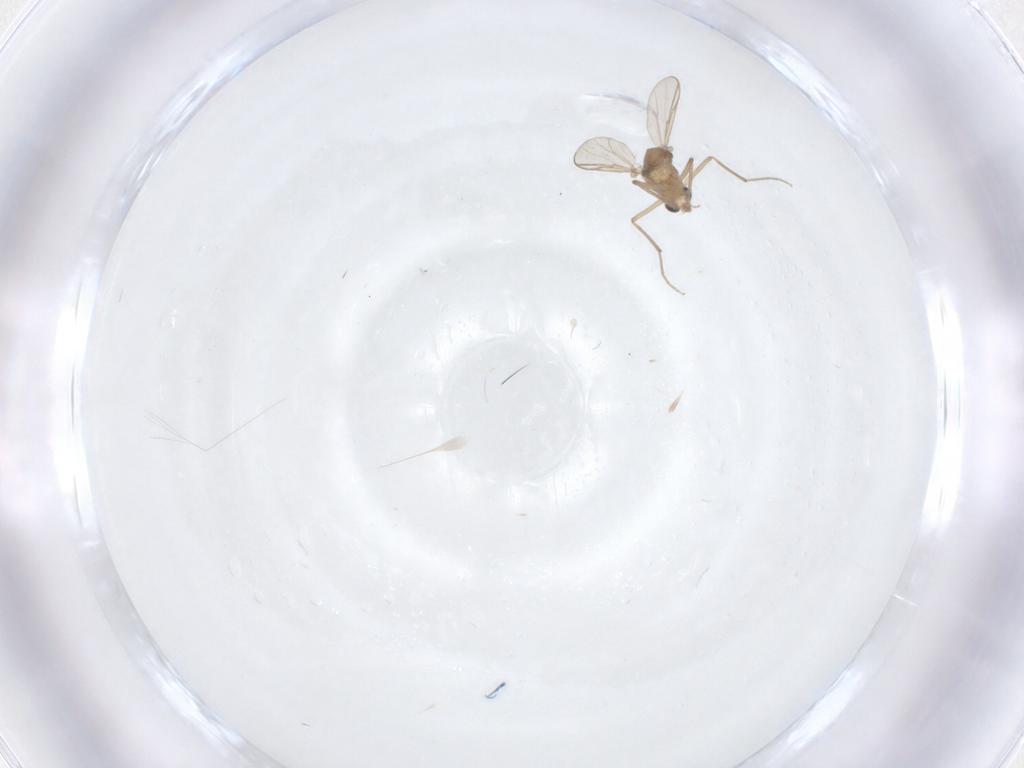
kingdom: Animalia
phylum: Arthropoda
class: Insecta
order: Diptera
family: Chironomidae
